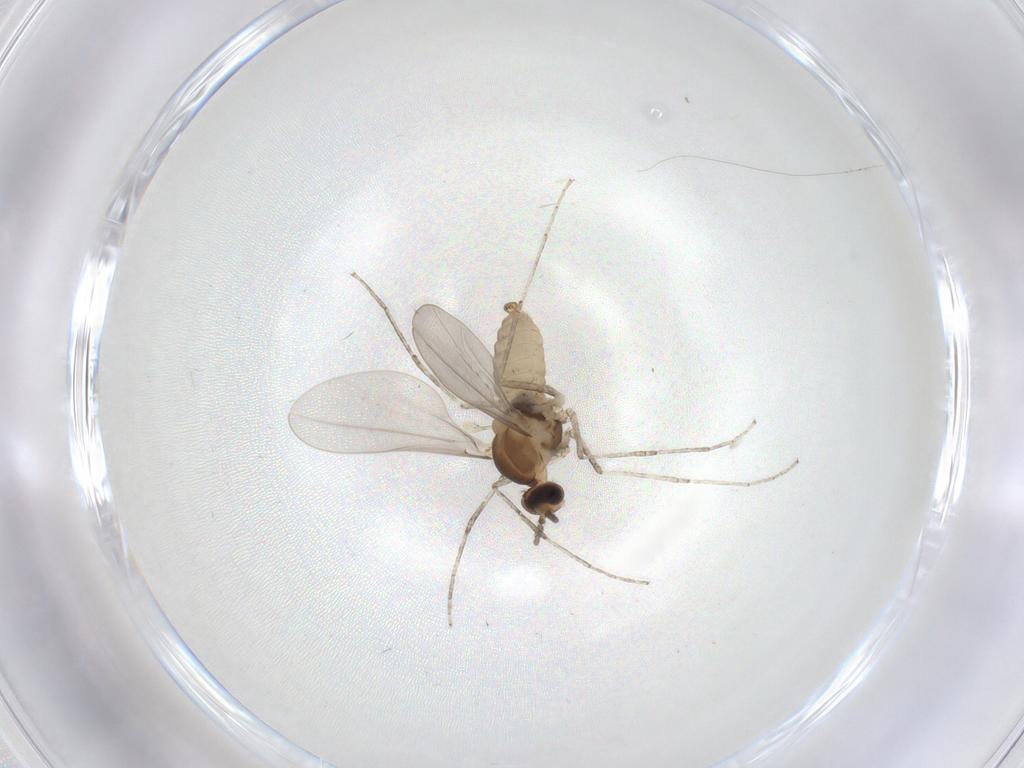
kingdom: Animalia
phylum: Arthropoda
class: Insecta
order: Diptera
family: Cecidomyiidae
